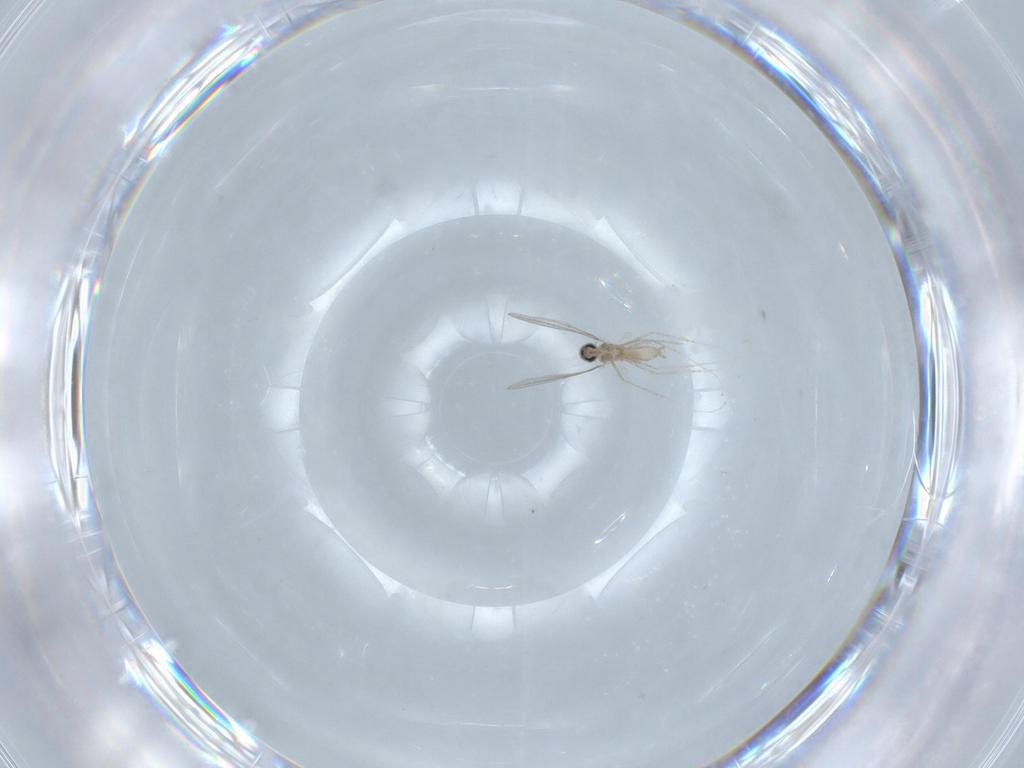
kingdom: Animalia
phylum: Arthropoda
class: Insecta
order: Diptera
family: Cecidomyiidae
